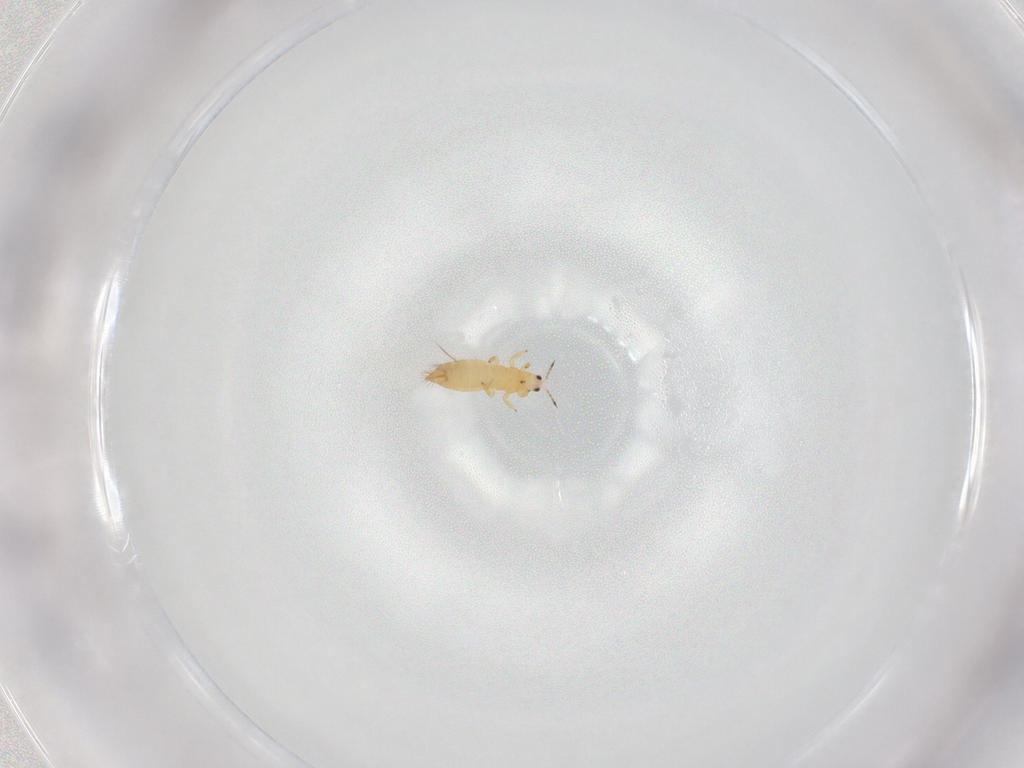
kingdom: Animalia
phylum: Arthropoda
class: Insecta
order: Thysanoptera
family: Thripidae
